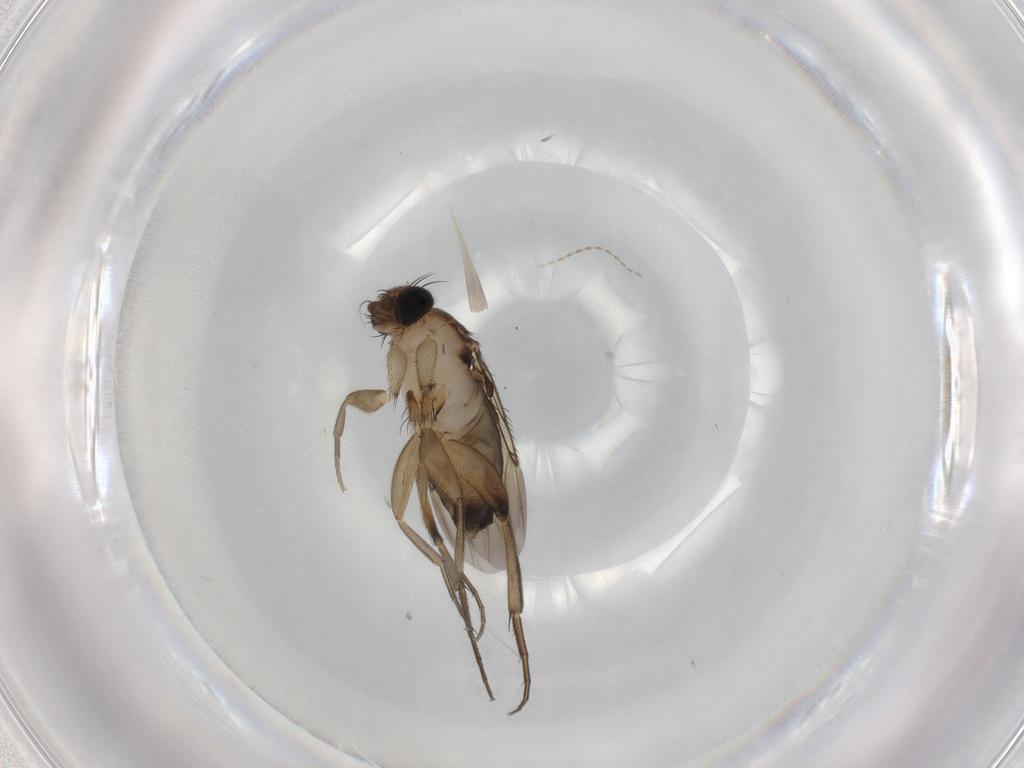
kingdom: Animalia
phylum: Arthropoda
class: Insecta
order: Diptera
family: Phoridae
